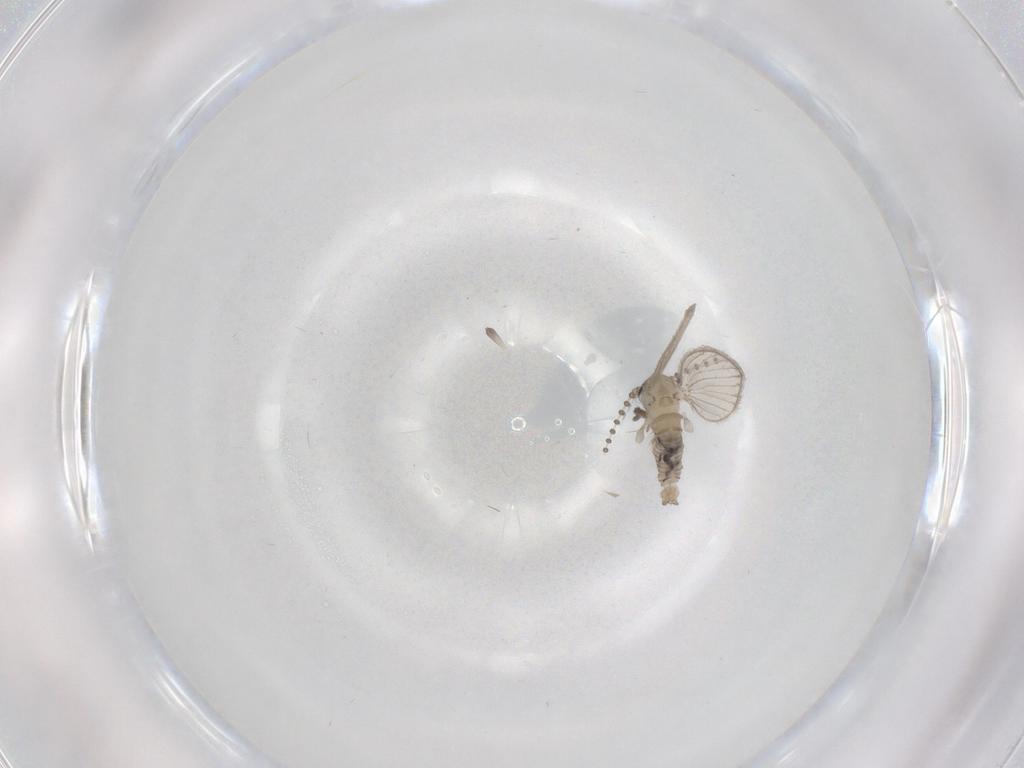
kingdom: Animalia
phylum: Arthropoda
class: Insecta
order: Diptera
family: Psychodidae
